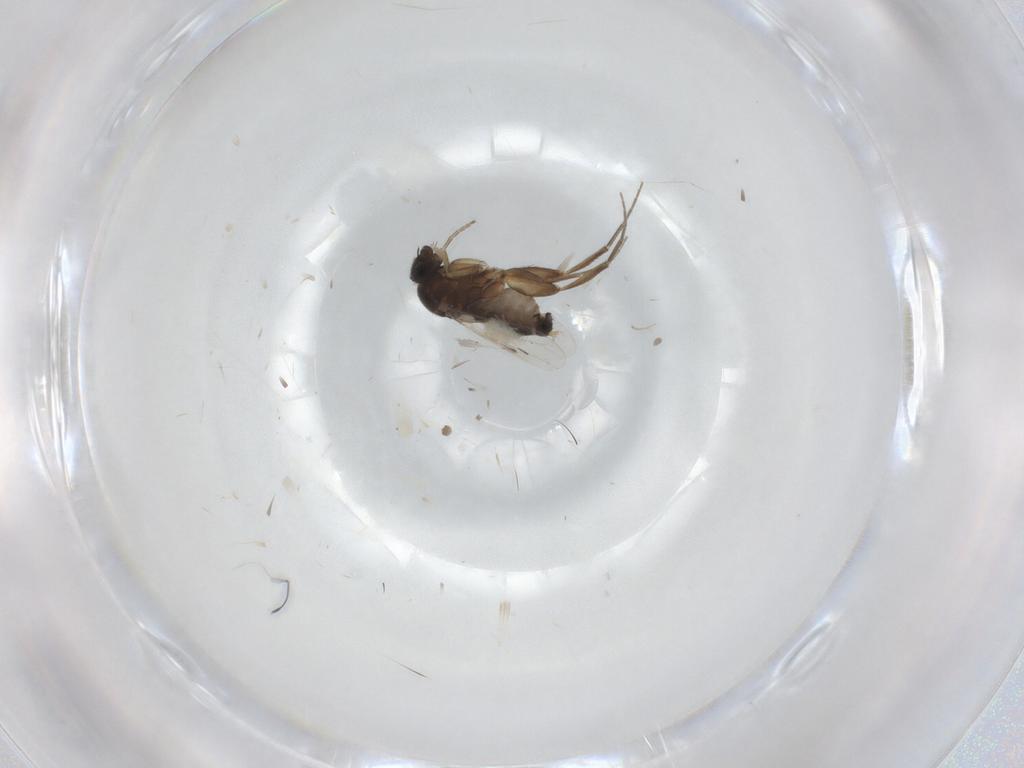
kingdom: Animalia
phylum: Arthropoda
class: Insecta
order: Diptera
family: Phoridae
